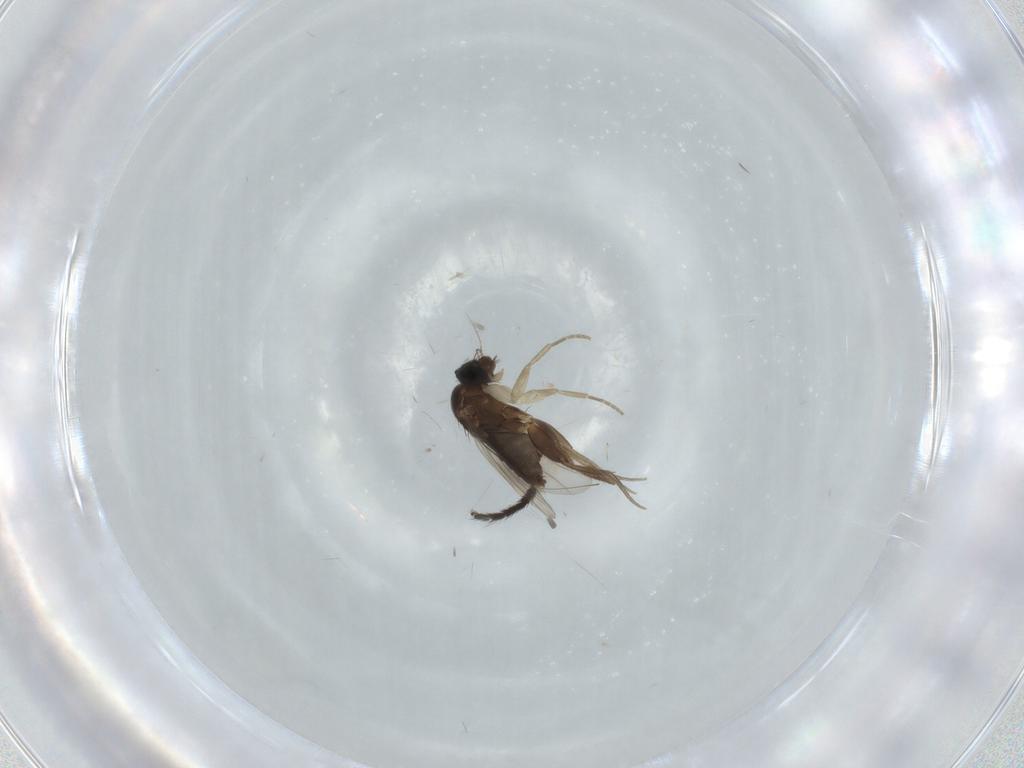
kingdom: Animalia
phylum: Arthropoda
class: Insecta
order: Diptera
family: Phoridae
